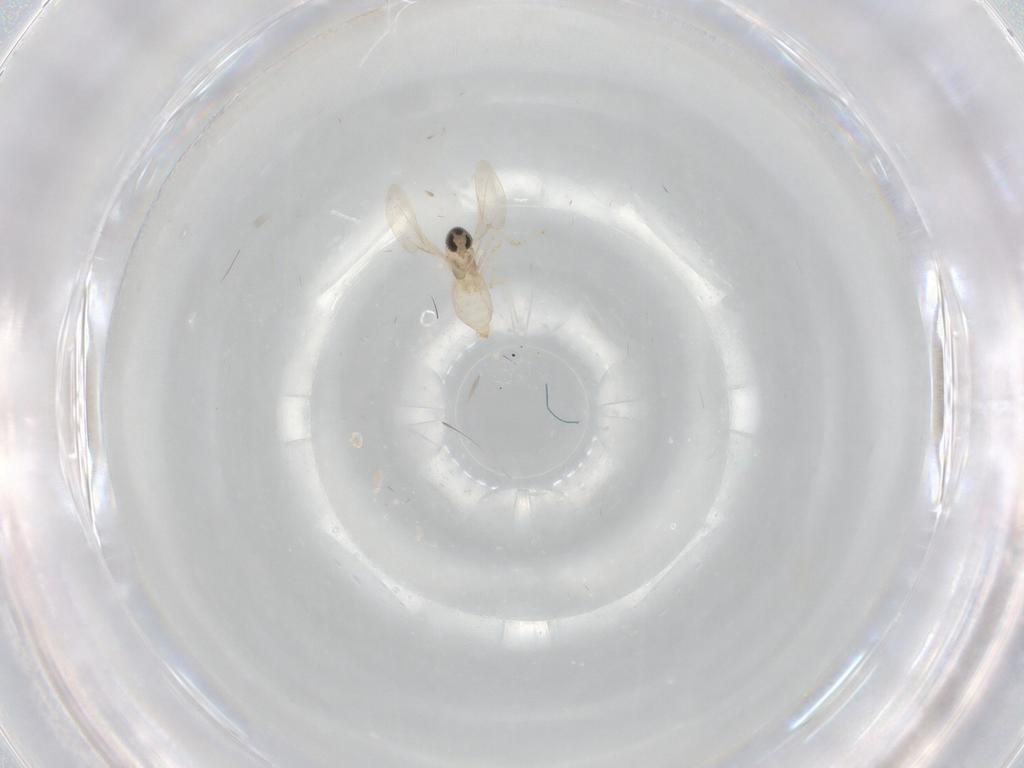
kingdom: Animalia
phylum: Arthropoda
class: Insecta
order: Diptera
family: Cecidomyiidae
